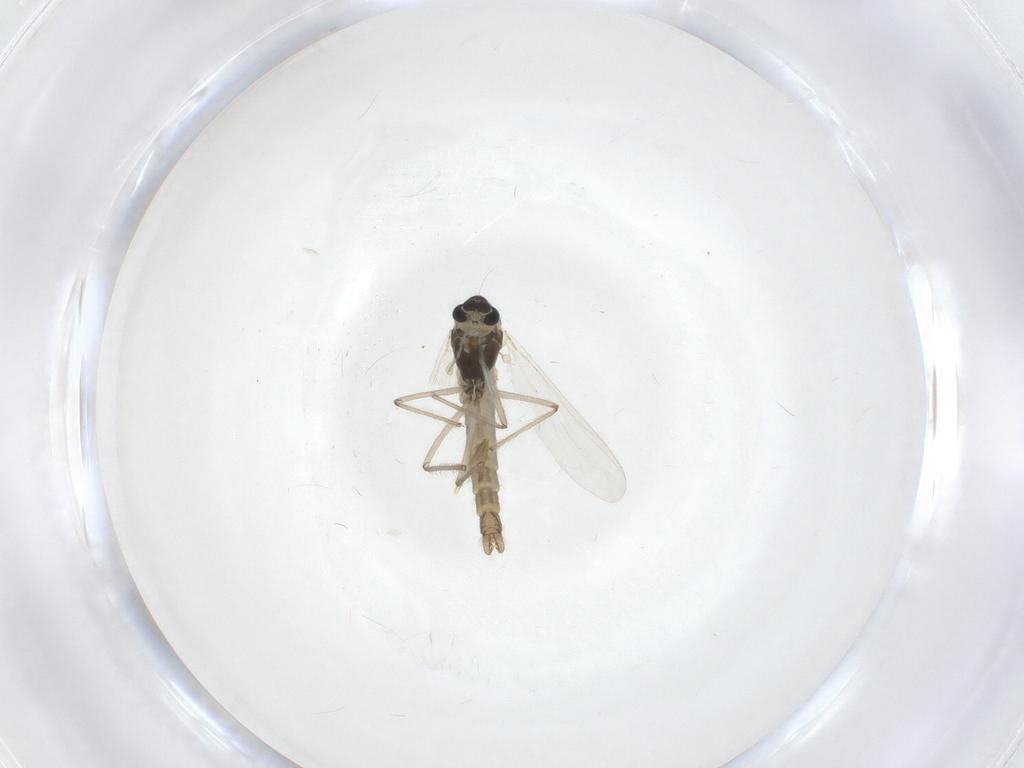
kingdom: Animalia
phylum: Arthropoda
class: Insecta
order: Diptera
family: Chironomidae
